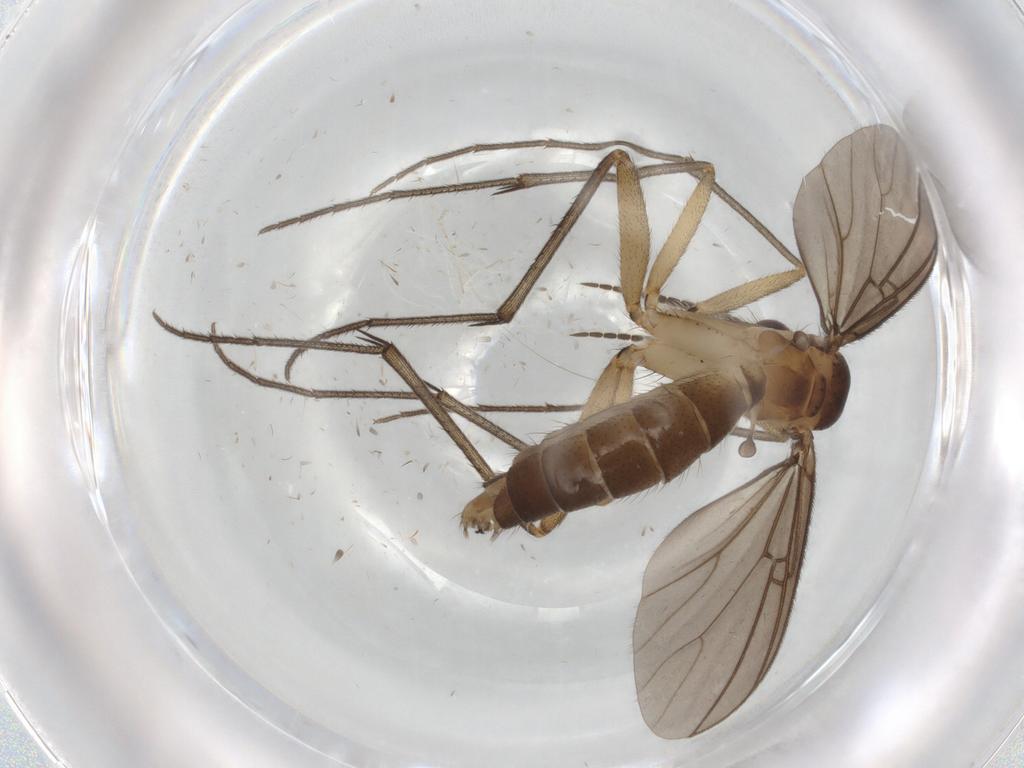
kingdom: Animalia
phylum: Arthropoda
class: Insecta
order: Diptera
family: Ditomyiidae
